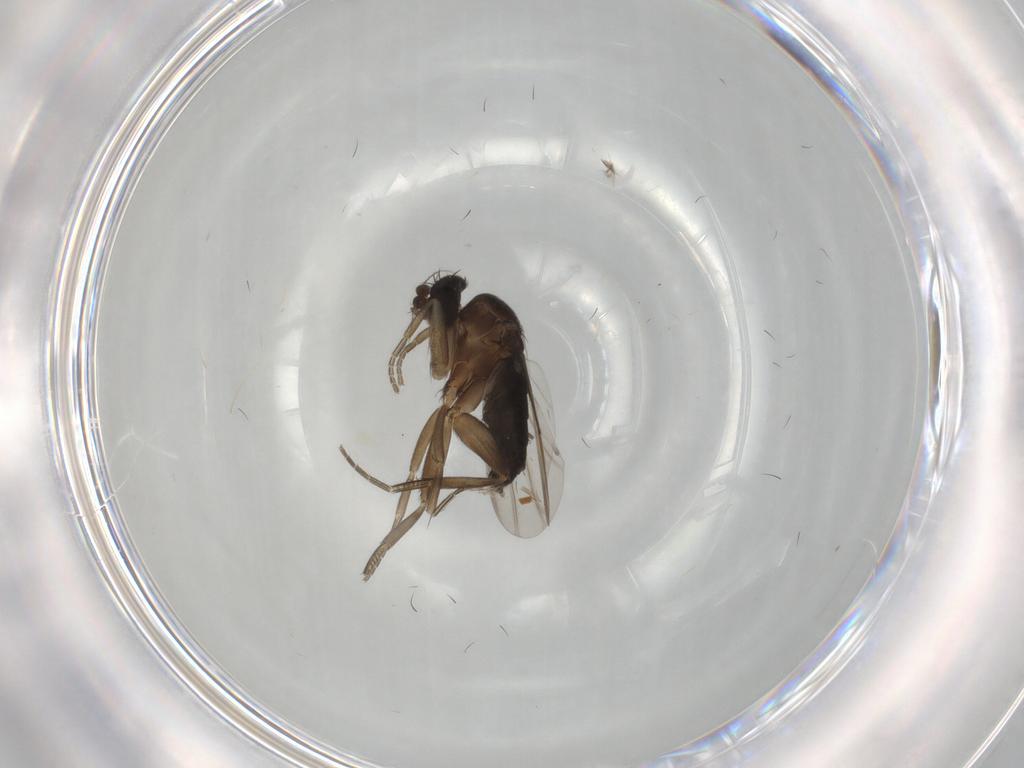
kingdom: Animalia
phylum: Arthropoda
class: Insecta
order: Diptera
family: Phoridae
